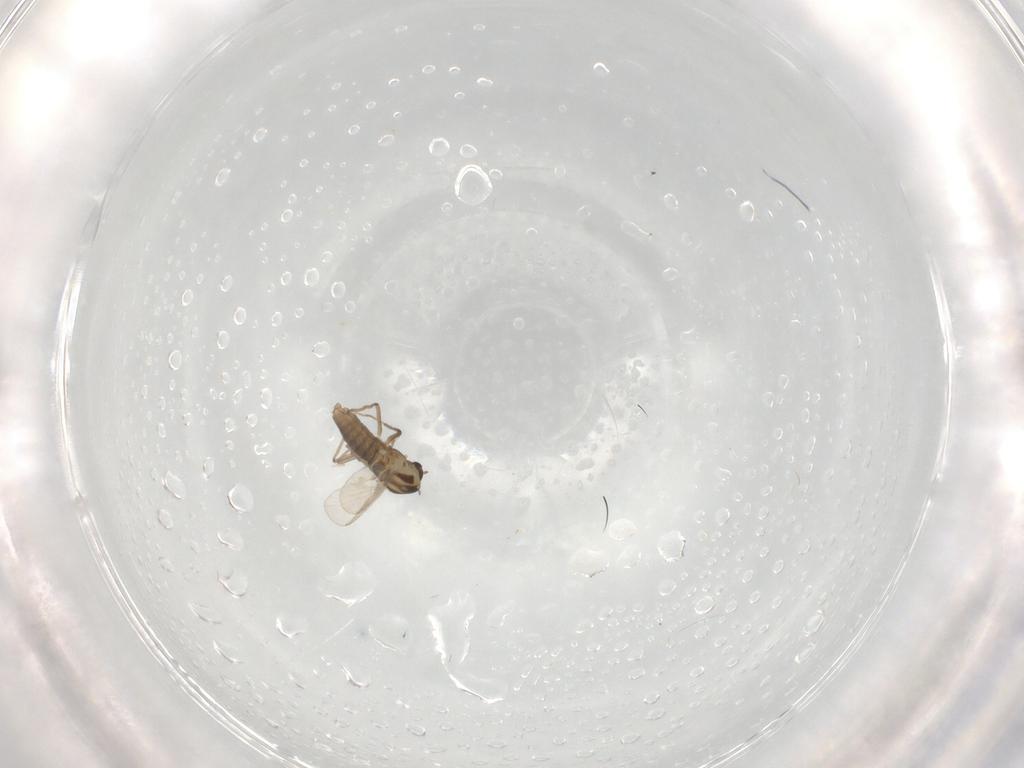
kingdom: Animalia
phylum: Arthropoda
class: Insecta
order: Diptera
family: Chironomidae
